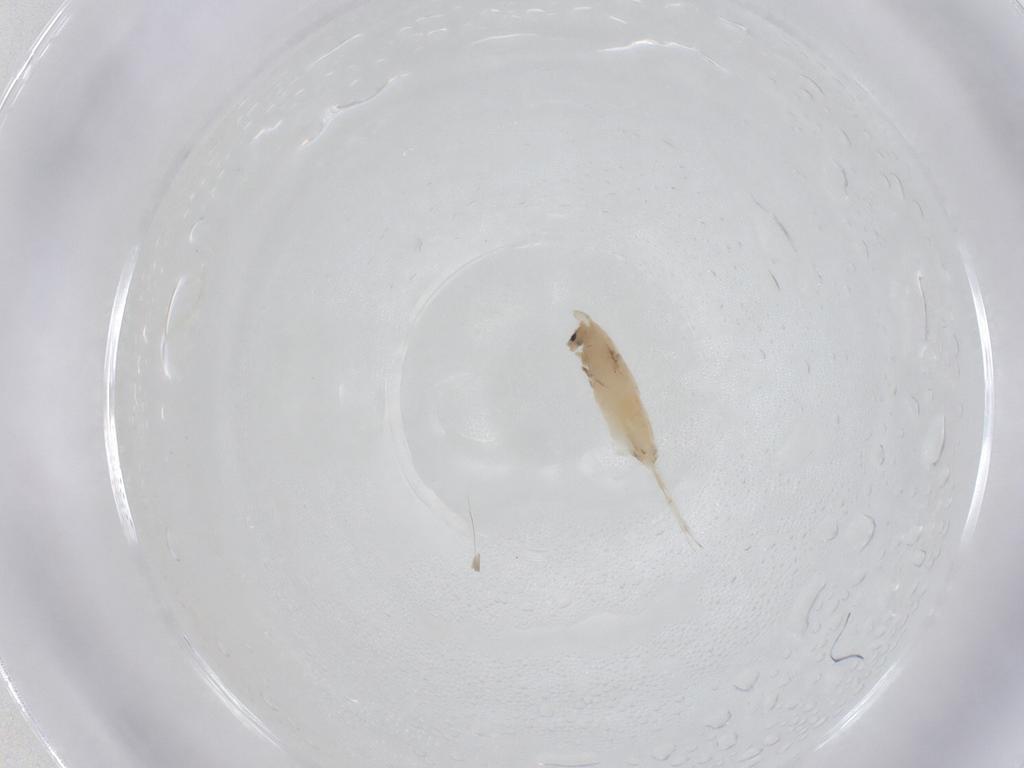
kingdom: Animalia
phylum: Arthropoda
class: Collembola
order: Entomobryomorpha
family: Entomobryidae
